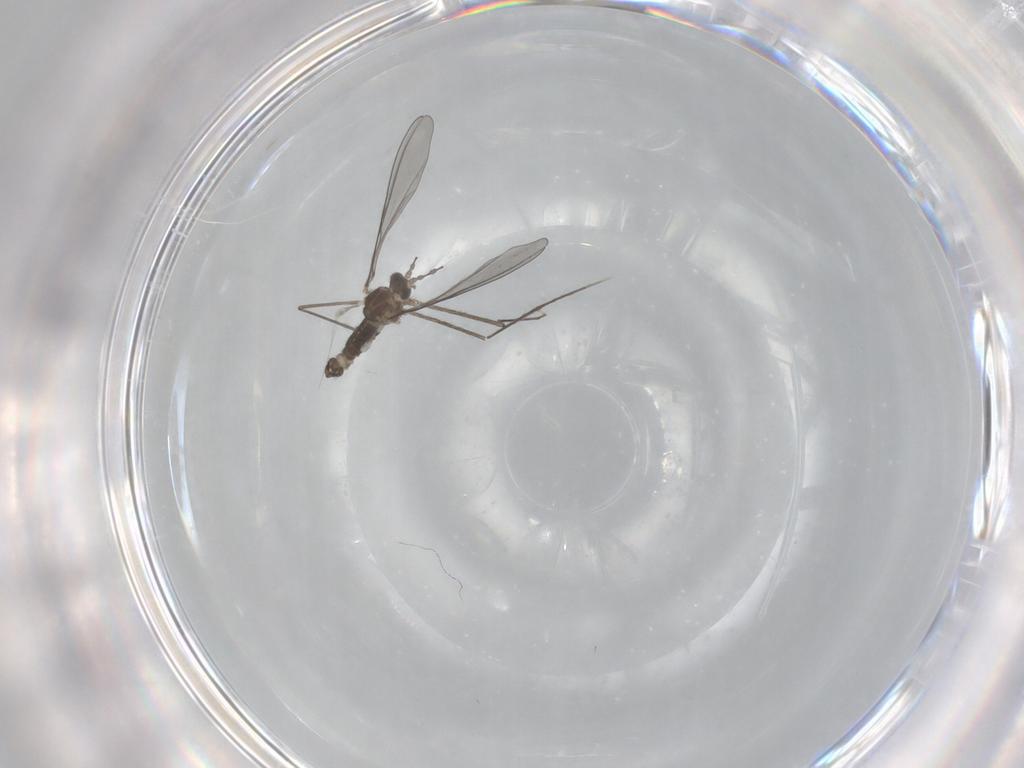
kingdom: Animalia
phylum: Arthropoda
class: Insecta
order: Diptera
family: Cecidomyiidae
